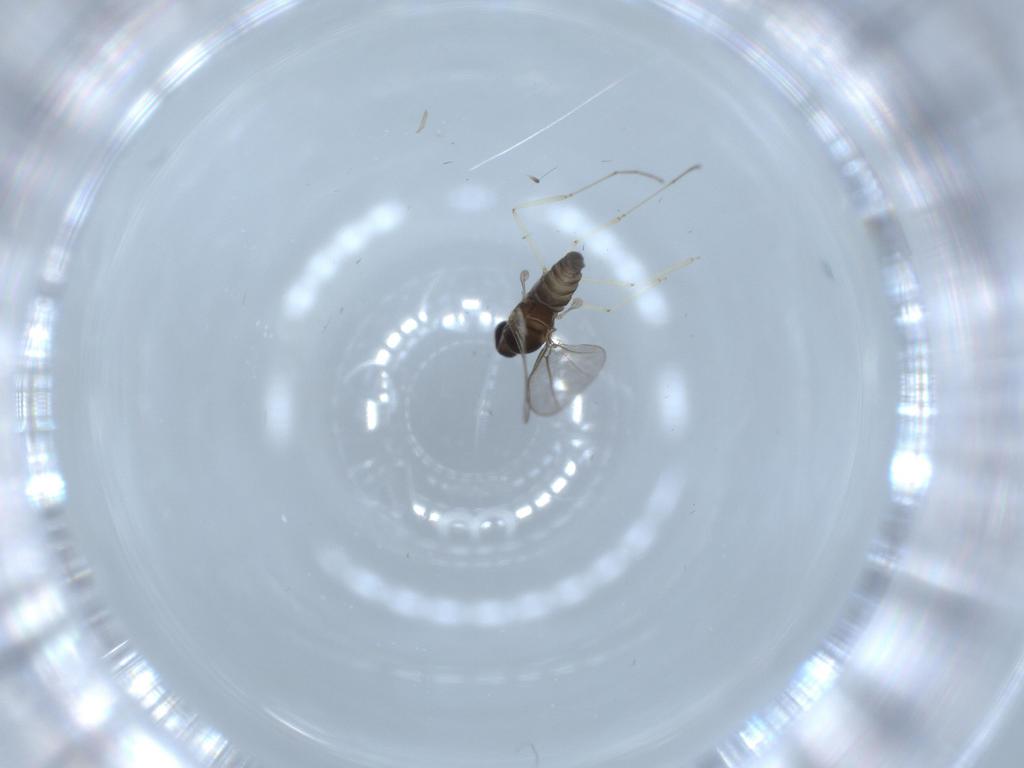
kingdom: Animalia
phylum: Arthropoda
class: Insecta
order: Diptera
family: Cecidomyiidae
